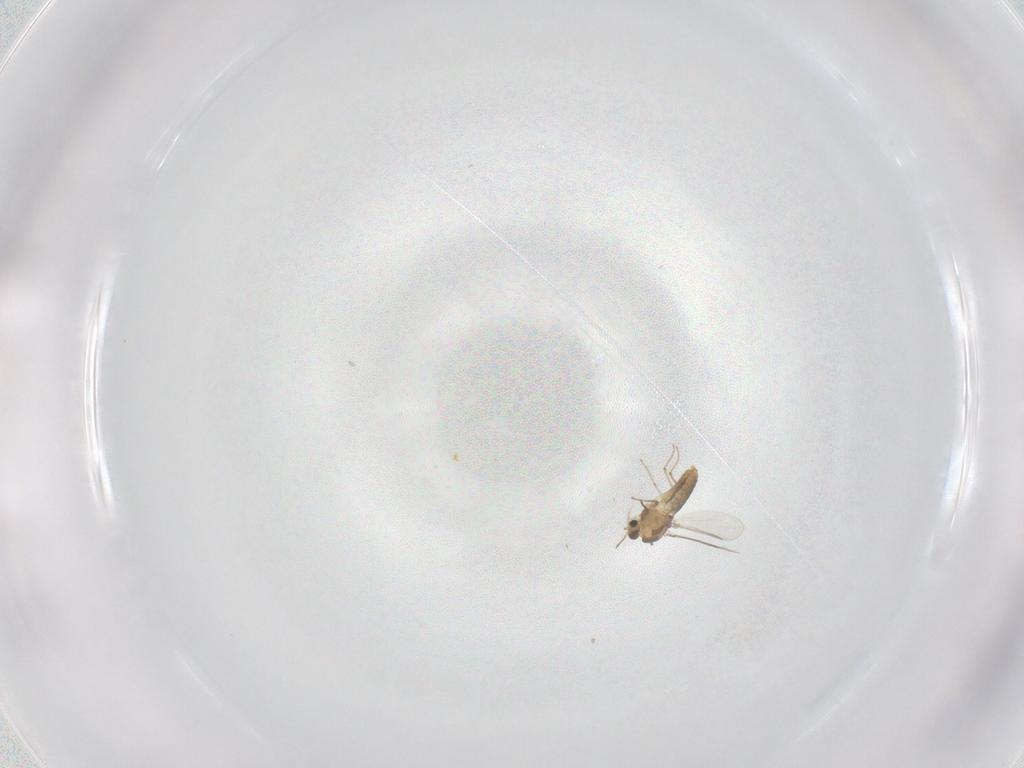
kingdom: Animalia
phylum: Arthropoda
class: Insecta
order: Diptera
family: Chironomidae
